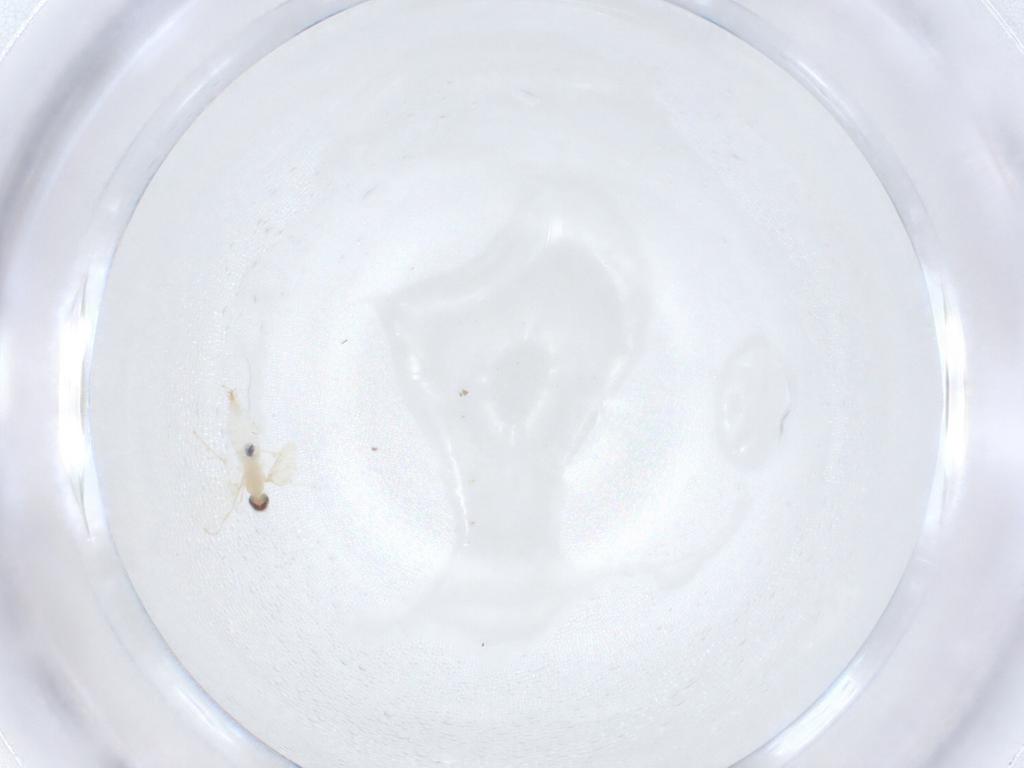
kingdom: Animalia
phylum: Arthropoda
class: Insecta
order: Diptera
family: Cecidomyiidae
